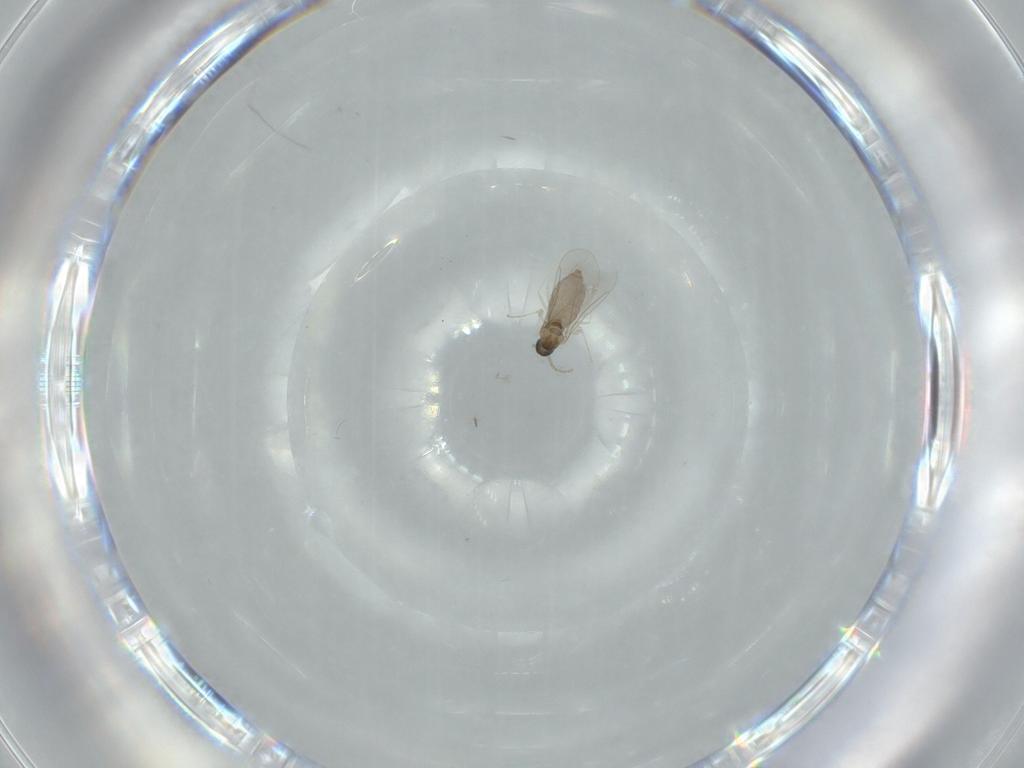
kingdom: Animalia
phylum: Arthropoda
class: Insecta
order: Diptera
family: Cecidomyiidae
